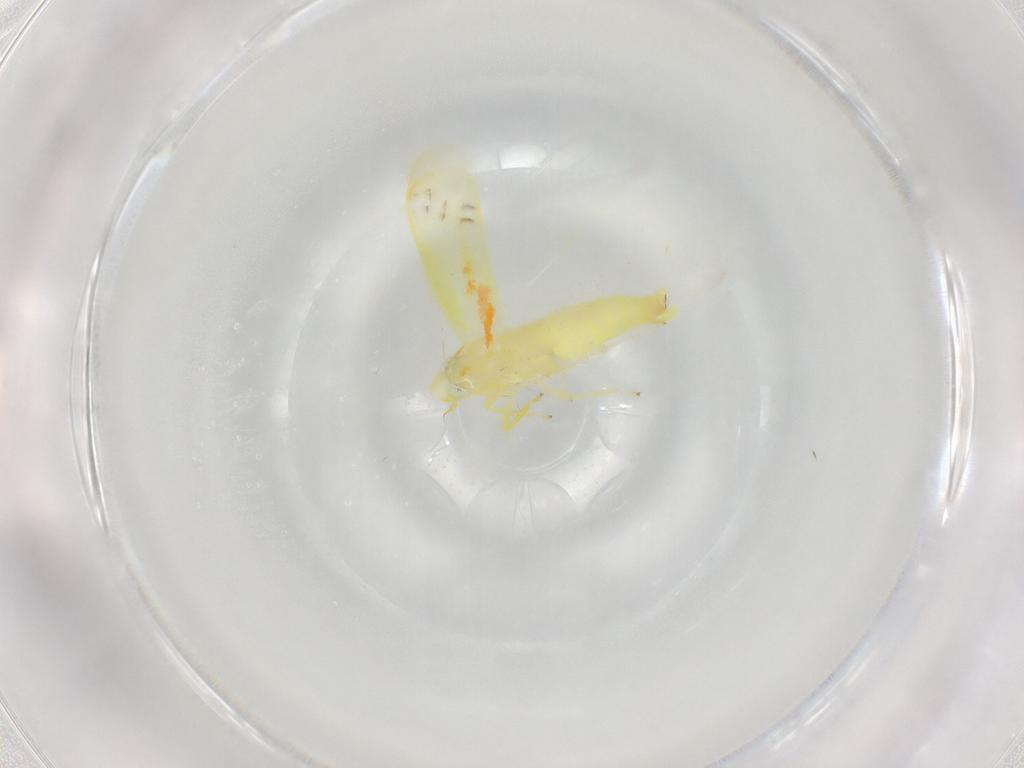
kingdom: Animalia
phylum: Arthropoda
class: Insecta
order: Hemiptera
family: Cicadellidae
